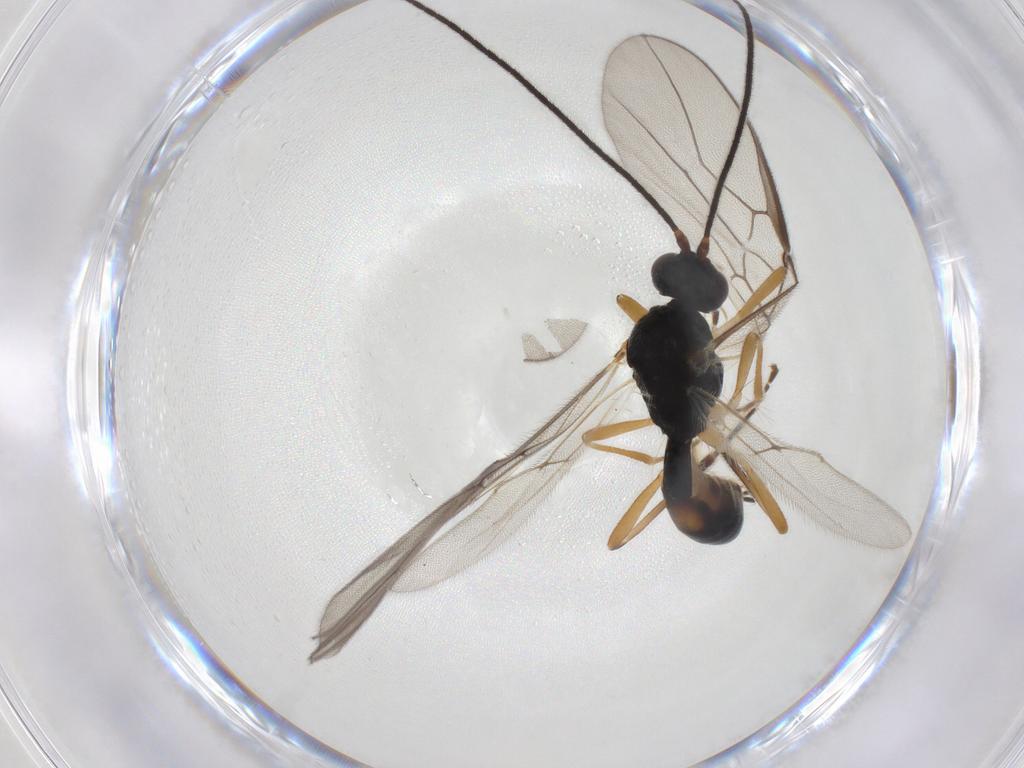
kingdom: Animalia
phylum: Arthropoda
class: Insecta
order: Hymenoptera
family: Braconidae
